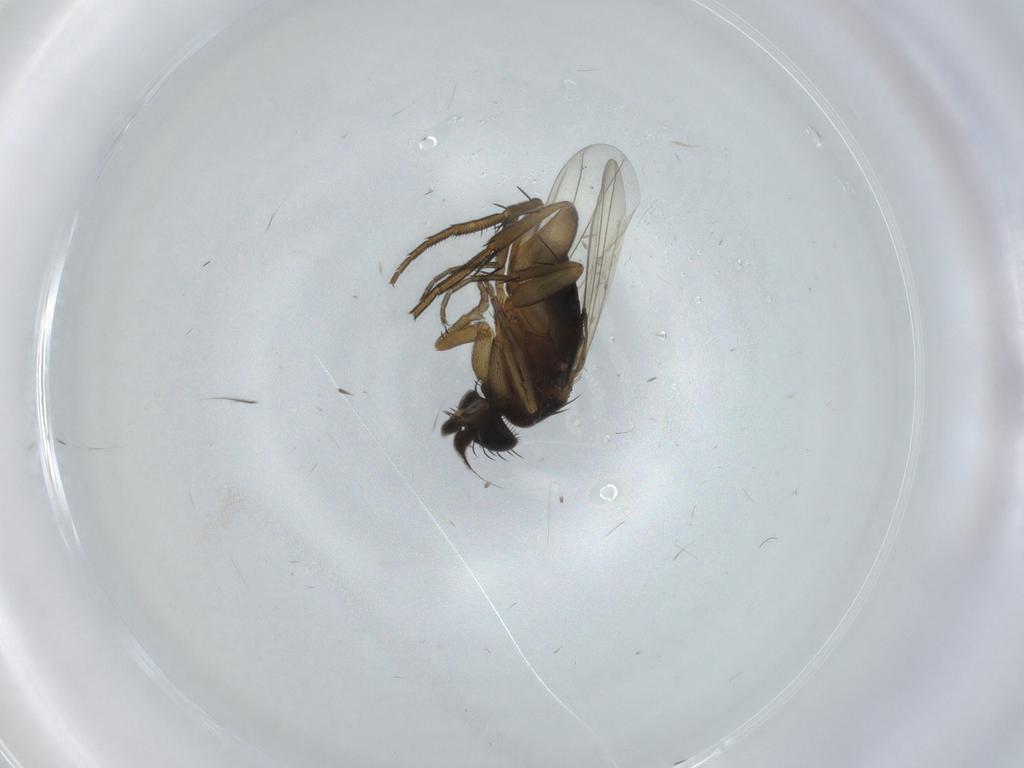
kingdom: Animalia
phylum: Arthropoda
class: Insecta
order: Diptera
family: Phoridae
